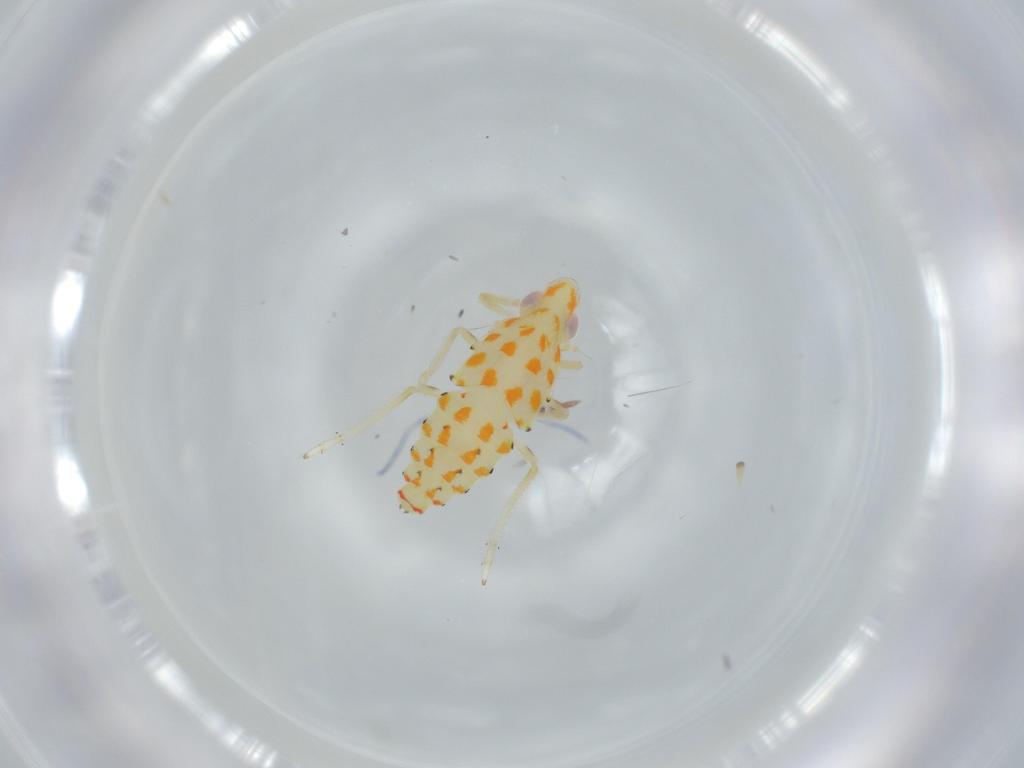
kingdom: Animalia
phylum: Arthropoda
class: Insecta
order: Hemiptera
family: Tropiduchidae
